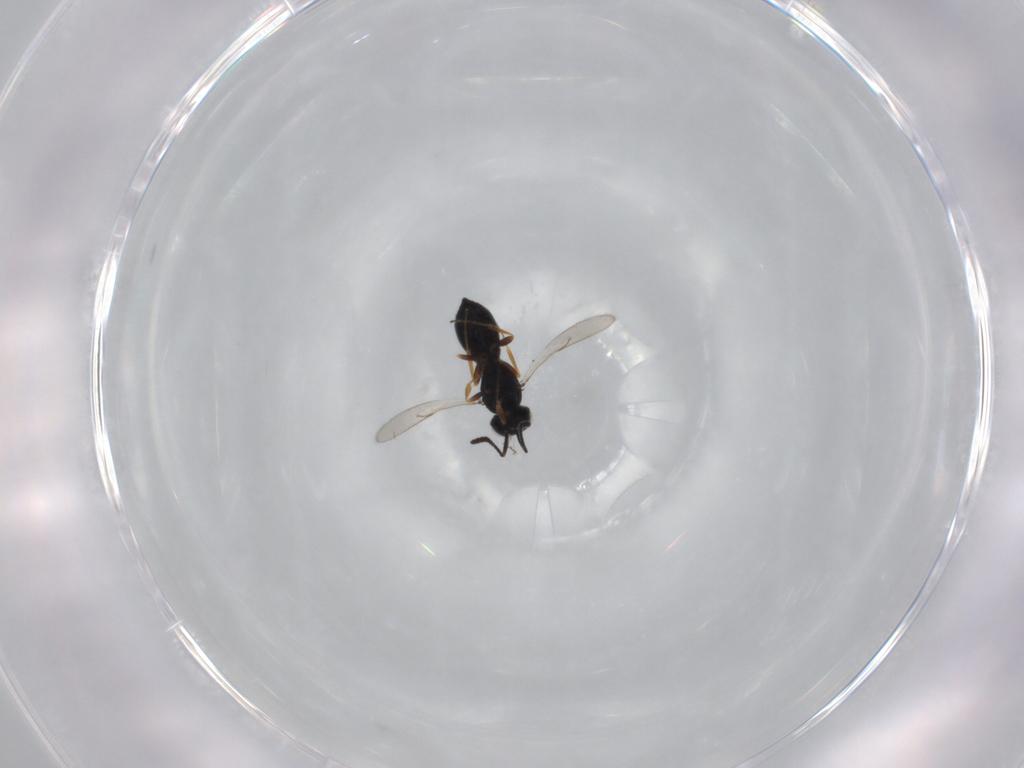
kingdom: Animalia
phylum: Arthropoda
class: Insecta
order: Hymenoptera
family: Scelionidae
